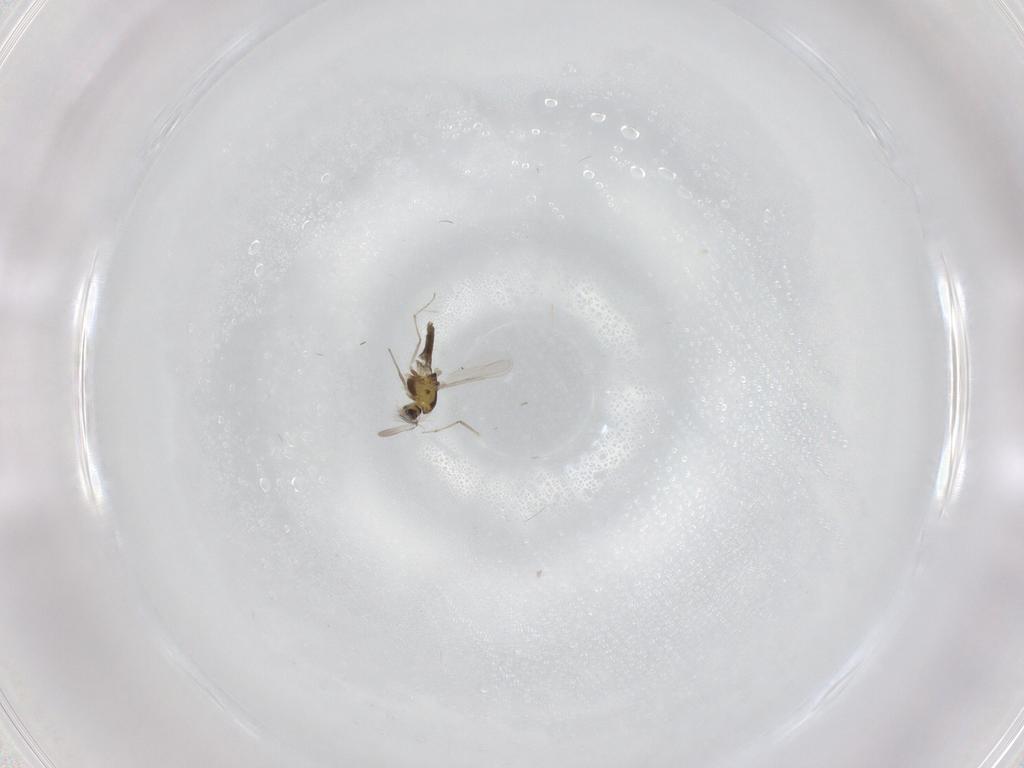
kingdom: Animalia
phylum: Arthropoda
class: Insecta
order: Diptera
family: Chironomidae
